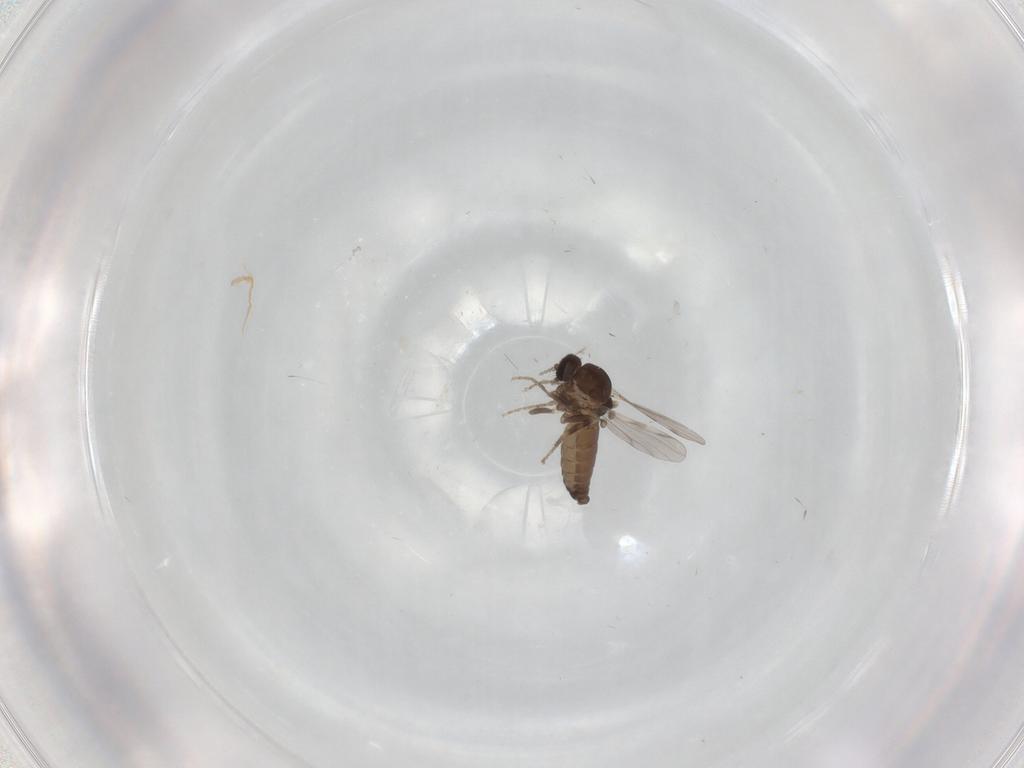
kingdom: Animalia
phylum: Arthropoda
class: Insecta
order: Diptera
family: Ceratopogonidae
